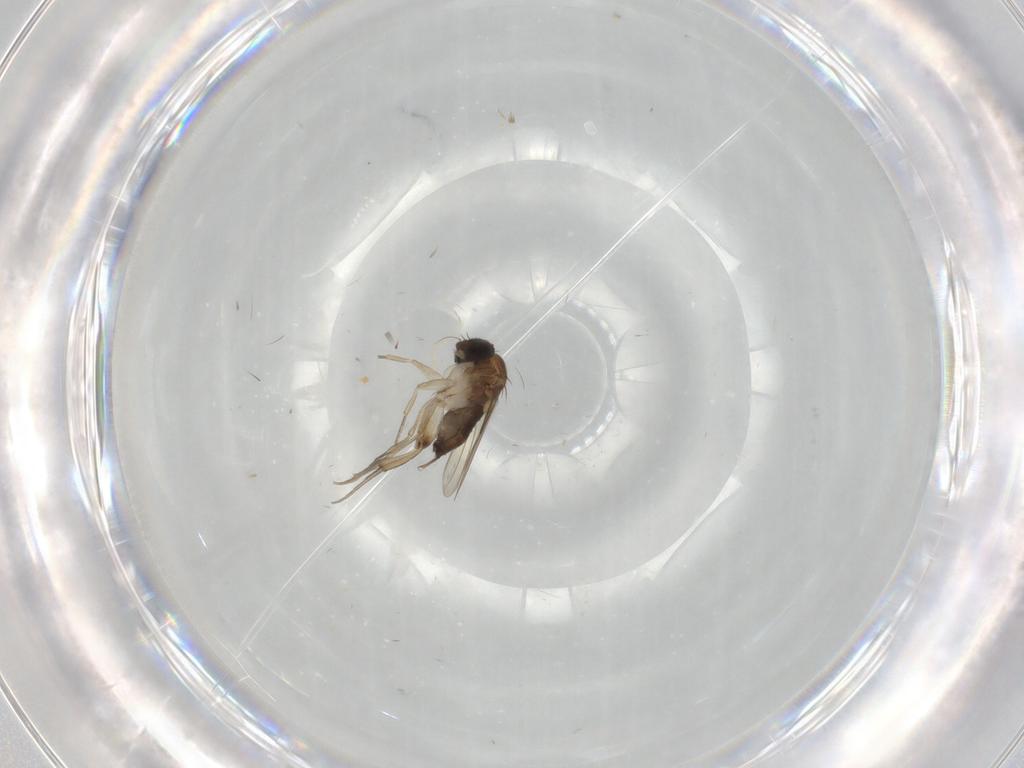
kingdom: Animalia
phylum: Arthropoda
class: Insecta
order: Diptera
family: Phoridae
